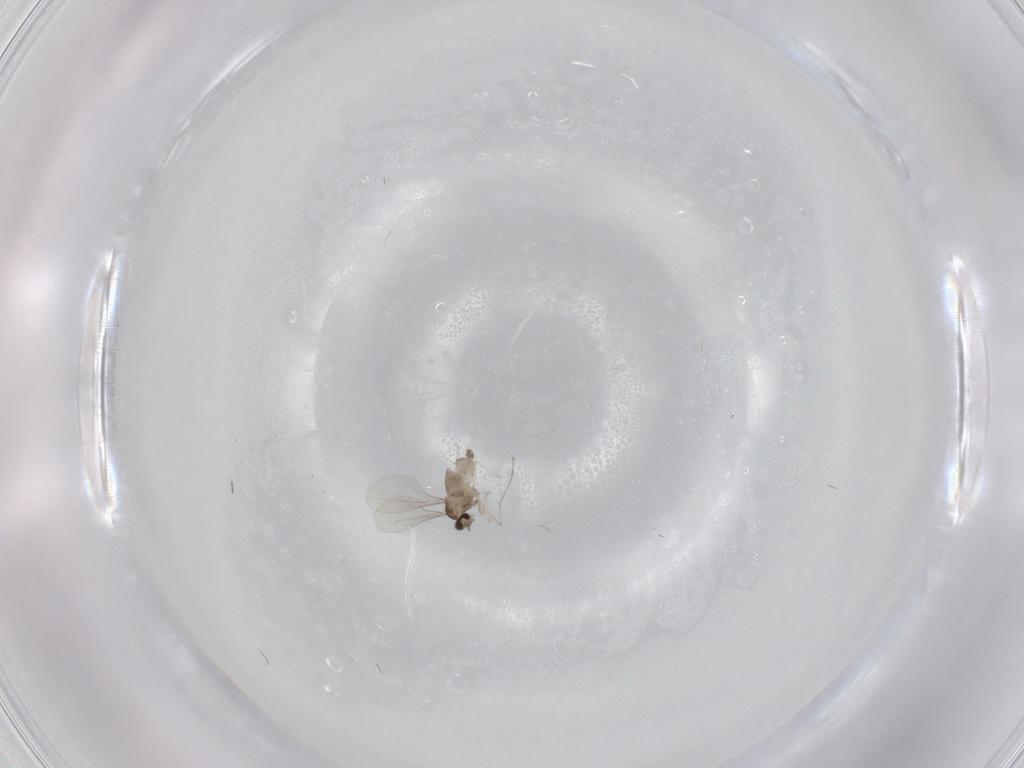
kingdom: Animalia
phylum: Arthropoda
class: Insecta
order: Diptera
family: Cecidomyiidae
